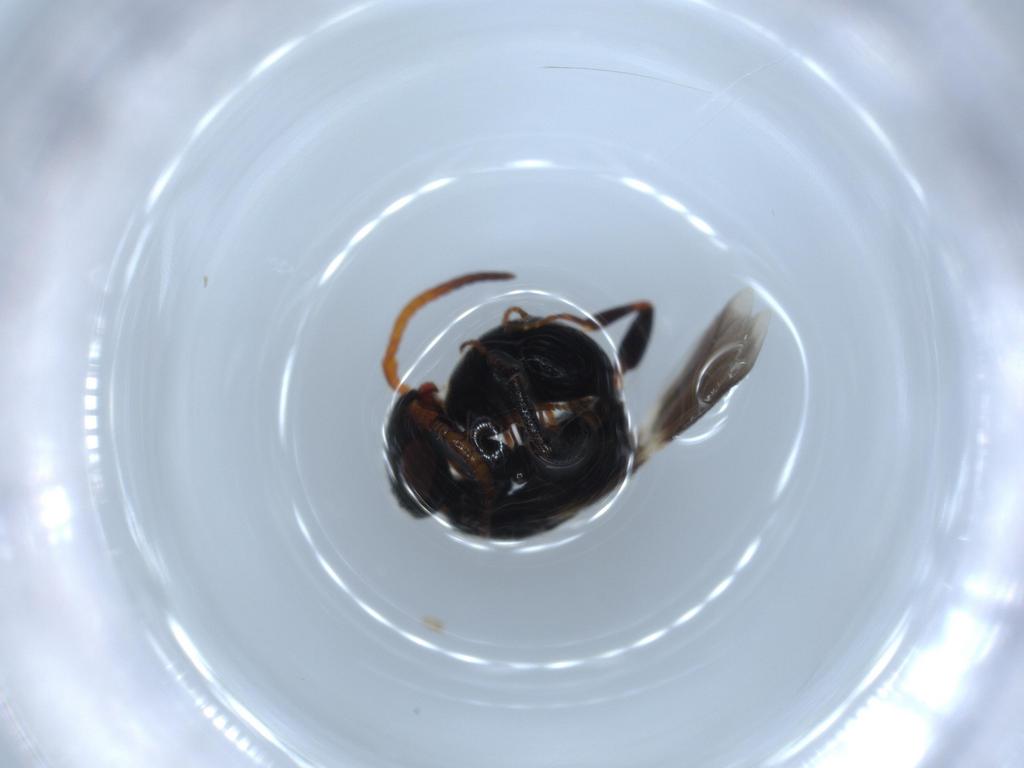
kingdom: Animalia
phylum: Arthropoda
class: Insecta
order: Hymenoptera
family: Bethylidae
